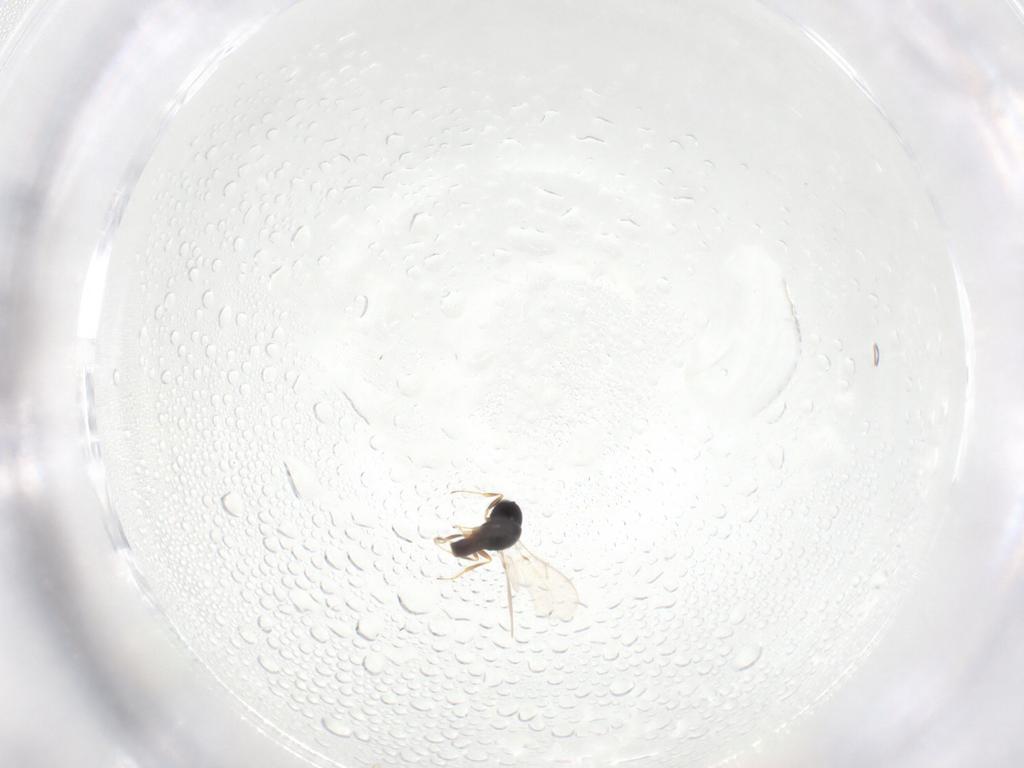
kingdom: Animalia
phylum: Arthropoda
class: Insecta
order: Hymenoptera
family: Scelionidae
